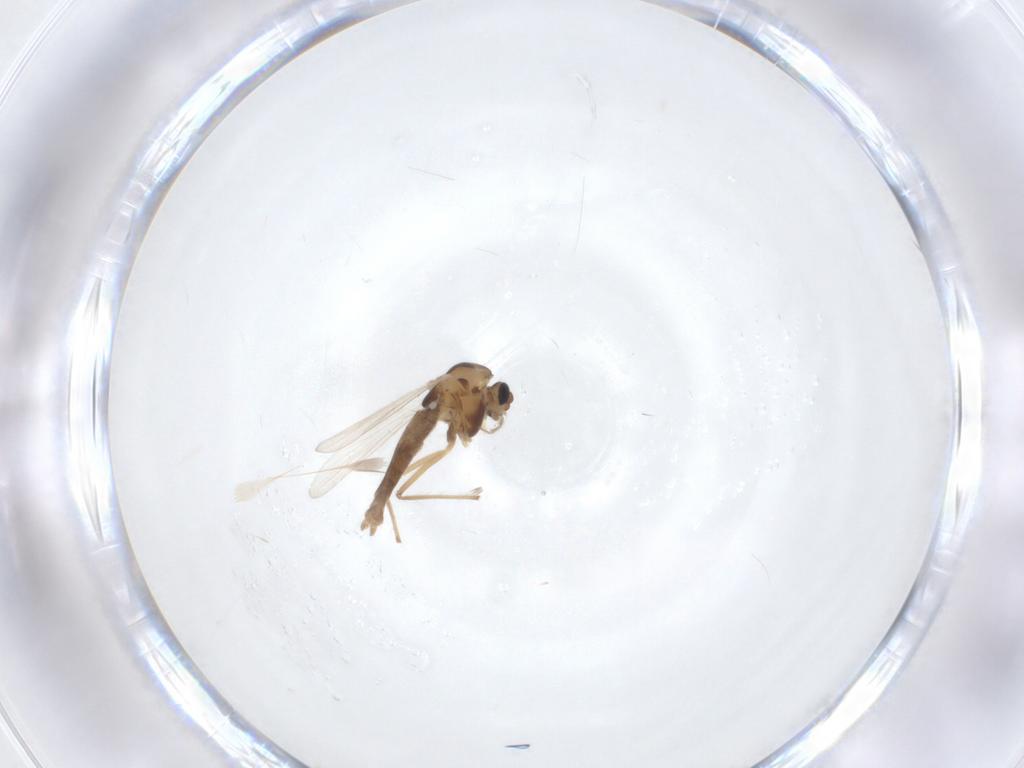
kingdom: Animalia
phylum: Arthropoda
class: Insecta
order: Diptera
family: Chironomidae
